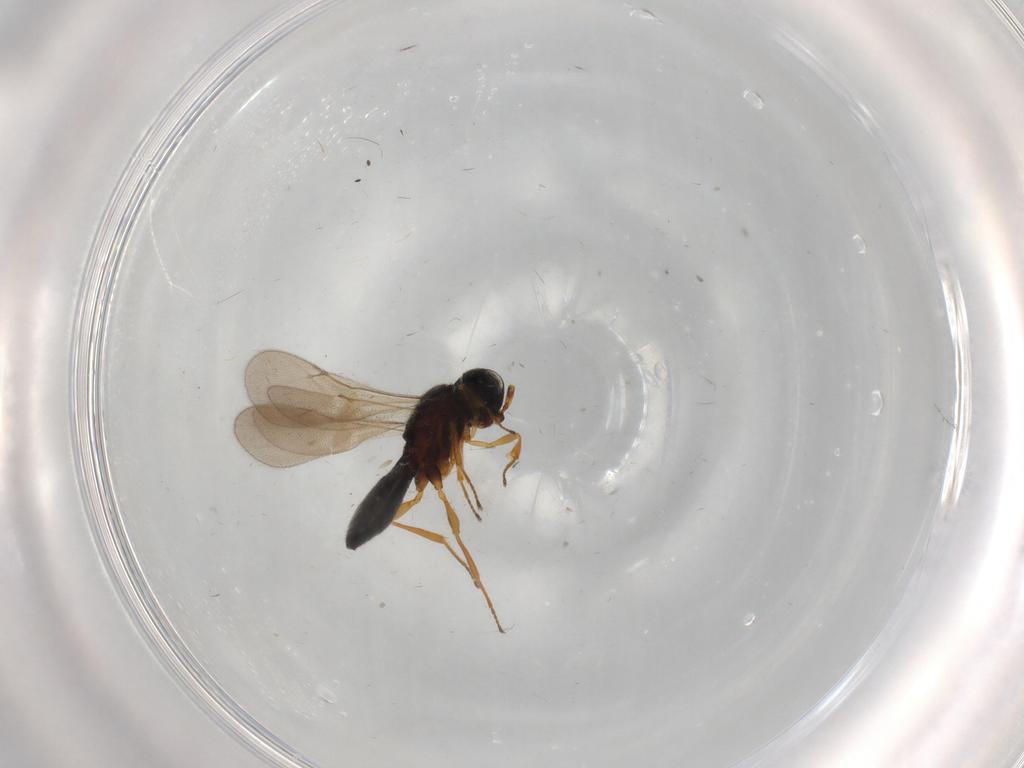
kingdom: Animalia
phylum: Arthropoda
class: Insecta
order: Hymenoptera
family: Scelionidae
